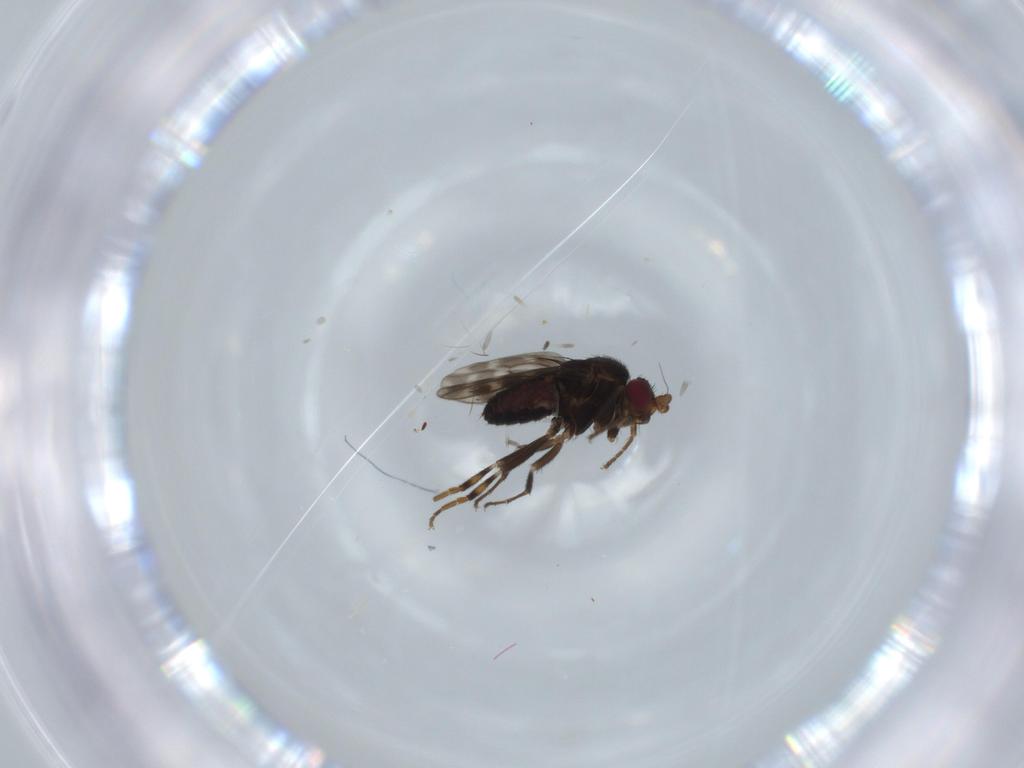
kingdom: Animalia
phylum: Arthropoda
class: Insecta
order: Diptera
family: Sphaeroceridae
